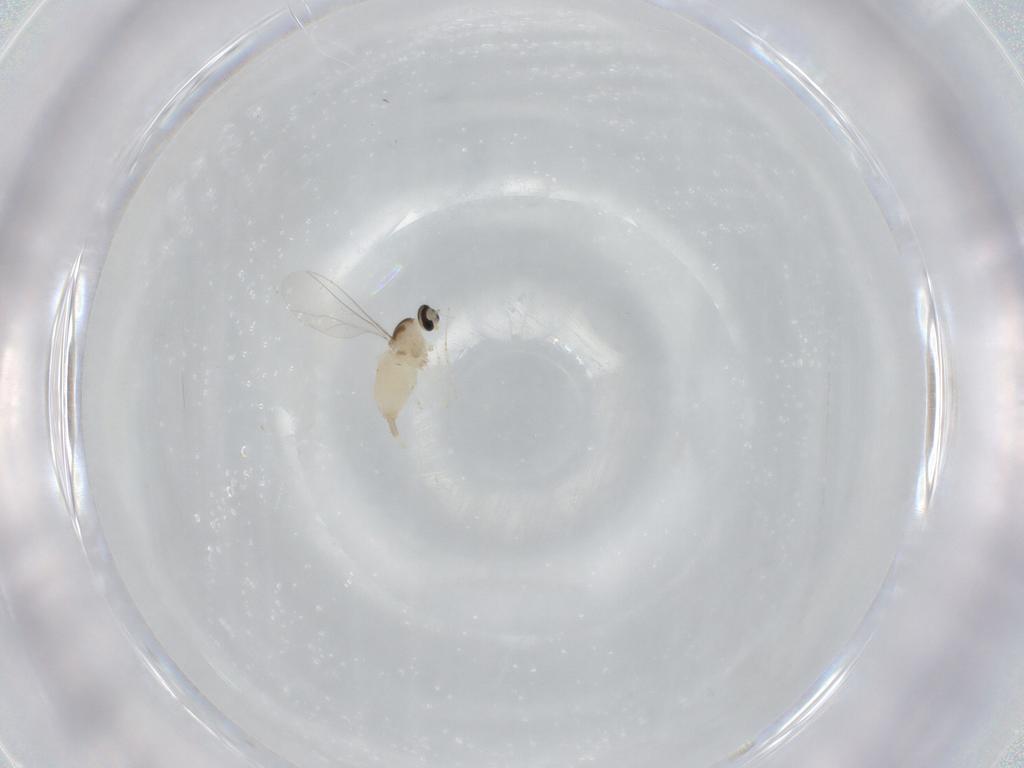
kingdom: Animalia
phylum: Arthropoda
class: Insecta
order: Diptera
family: Cecidomyiidae
